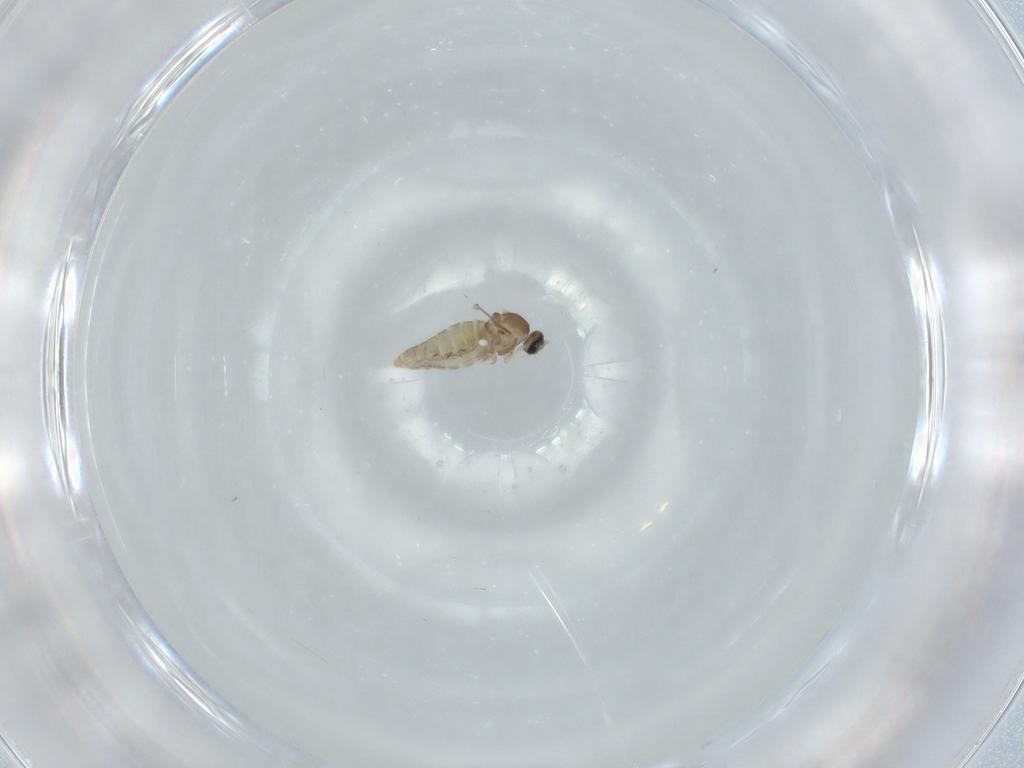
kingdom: Animalia
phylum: Arthropoda
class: Insecta
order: Diptera
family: Cecidomyiidae
